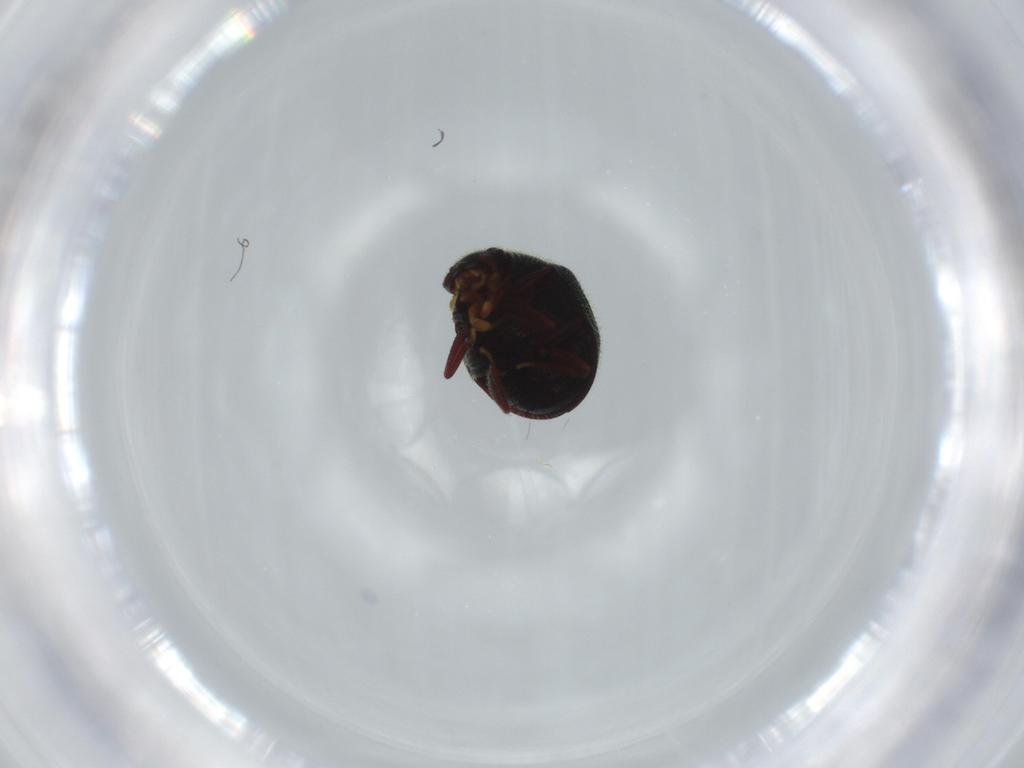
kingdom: Animalia
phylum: Arthropoda
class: Insecta
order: Coleoptera
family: Ptinidae
